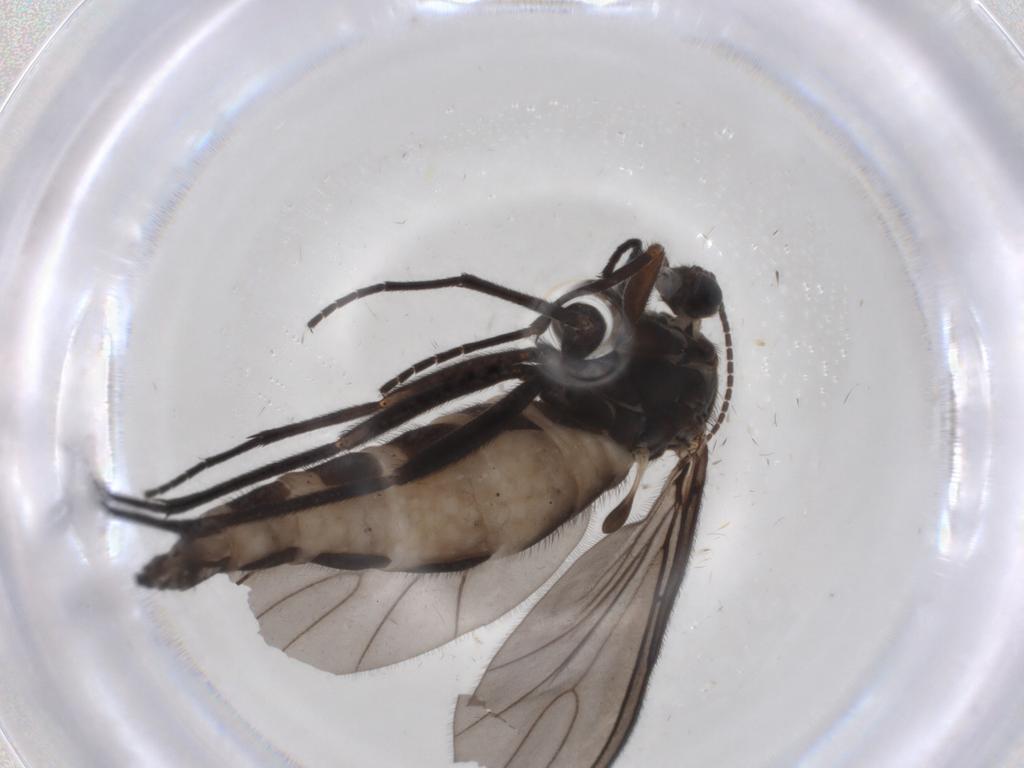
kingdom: Animalia
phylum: Arthropoda
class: Insecta
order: Diptera
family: Sciaridae
